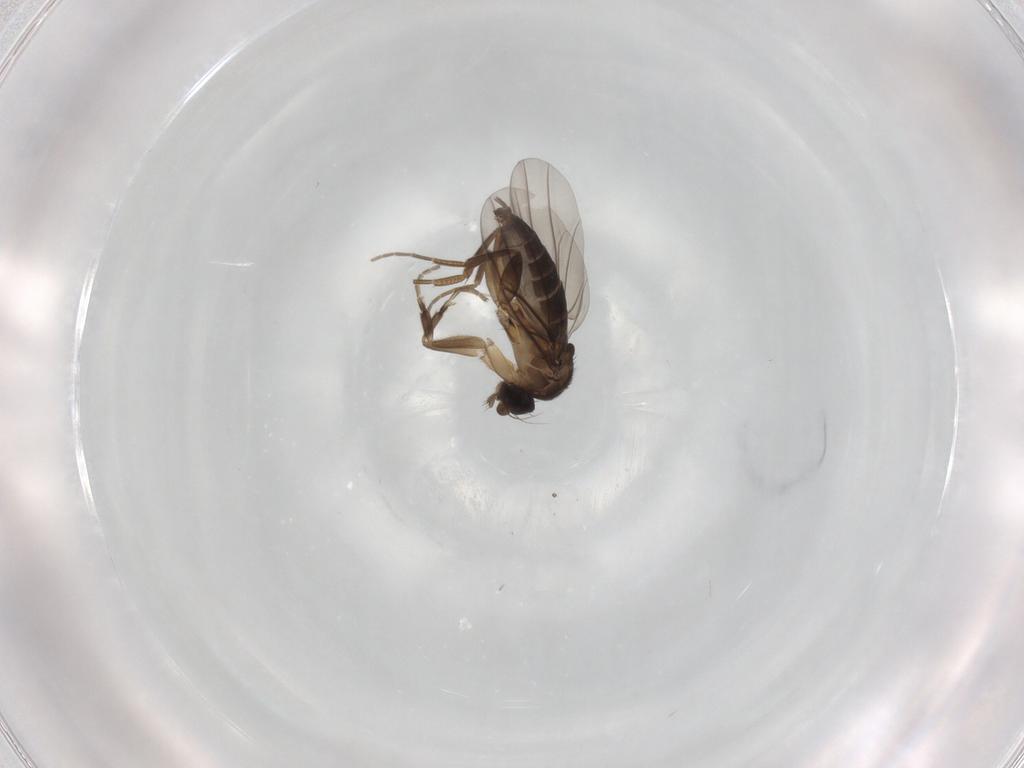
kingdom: Animalia
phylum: Arthropoda
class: Insecta
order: Diptera
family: Phoridae
